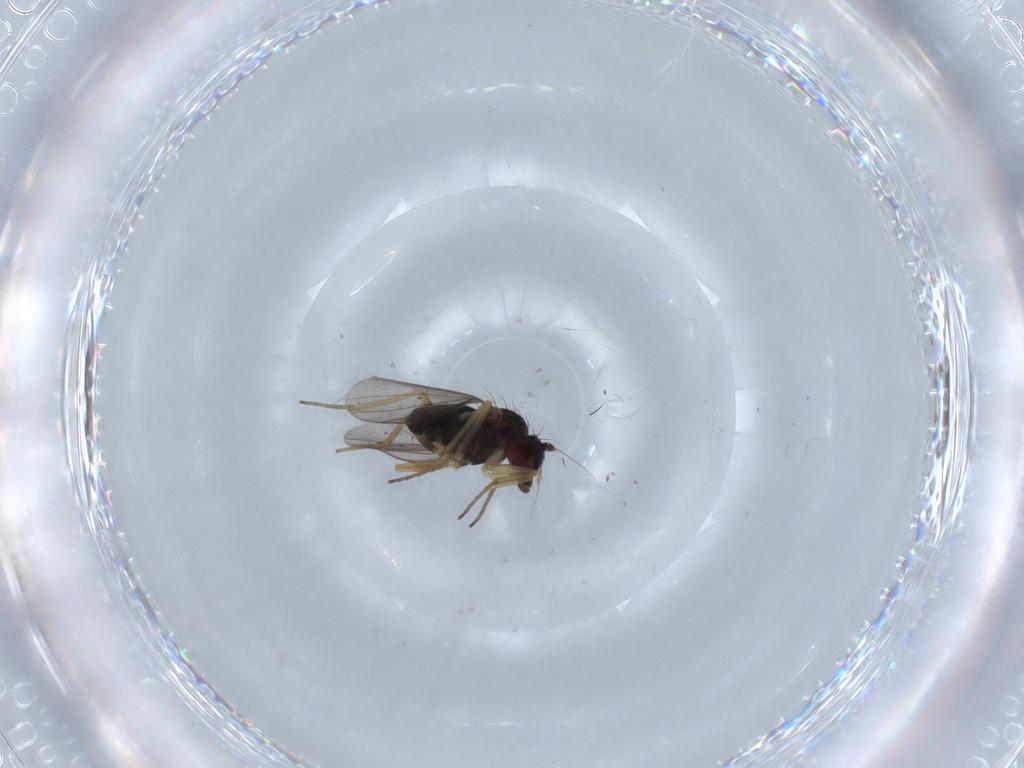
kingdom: Animalia
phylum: Arthropoda
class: Insecta
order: Diptera
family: Dolichopodidae
